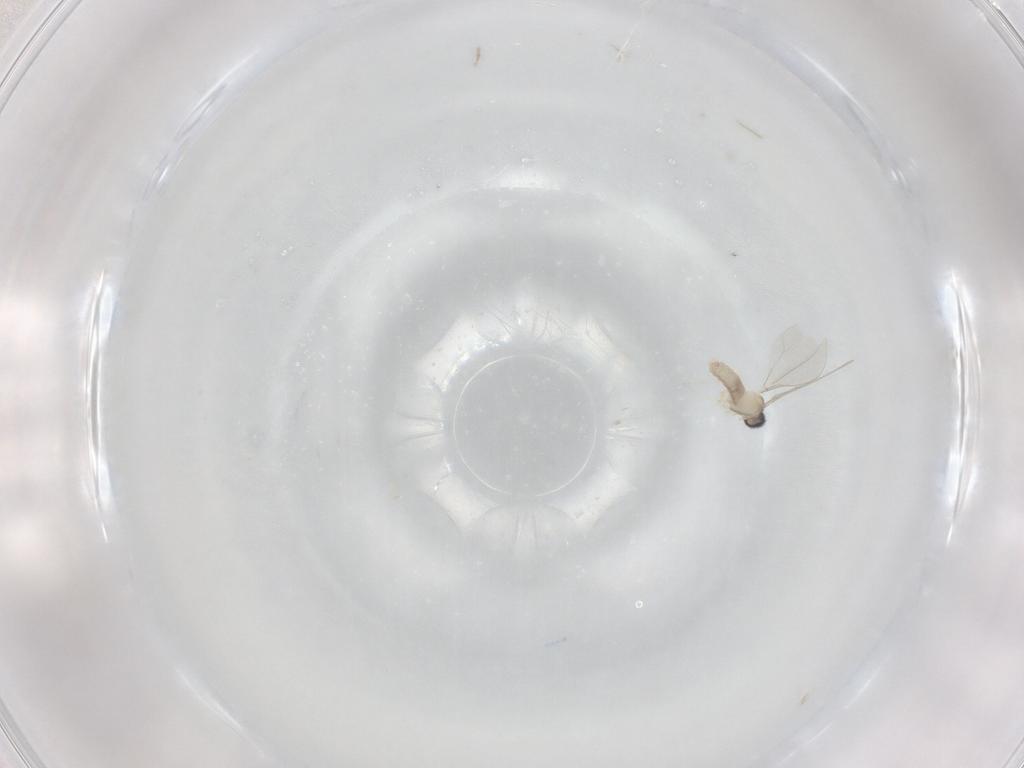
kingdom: Animalia
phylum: Arthropoda
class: Insecta
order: Diptera
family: Cecidomyiidae
